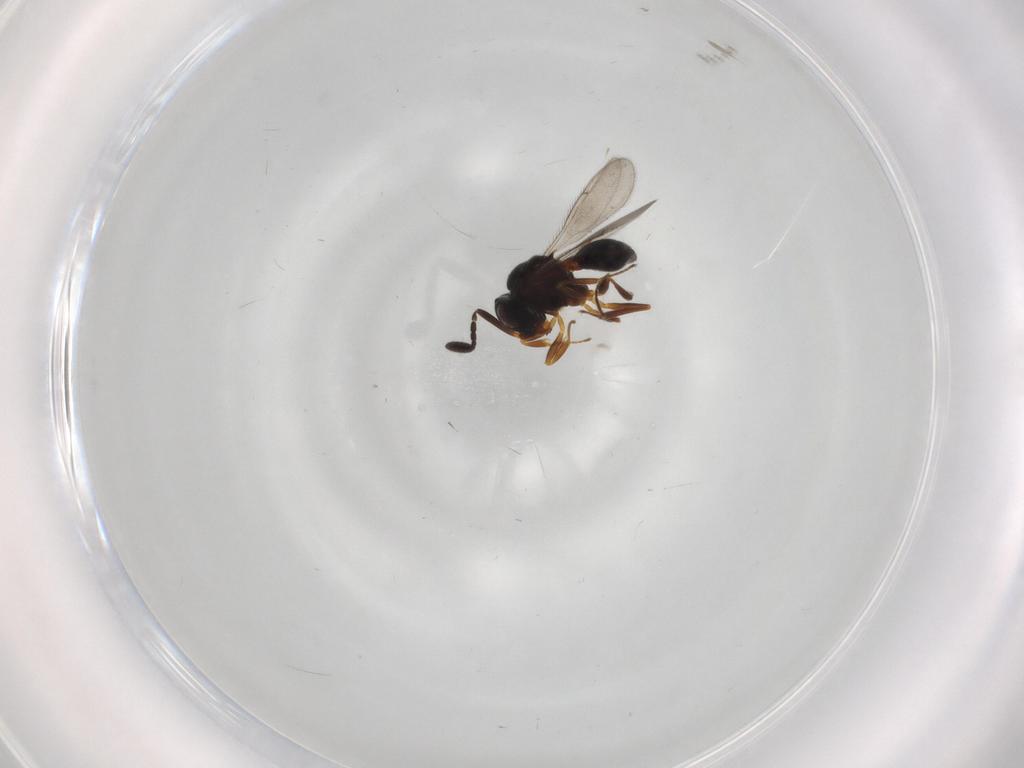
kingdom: Animalia
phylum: Arthropoda
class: Insecta
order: Hymenoptera
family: Scelionidae
